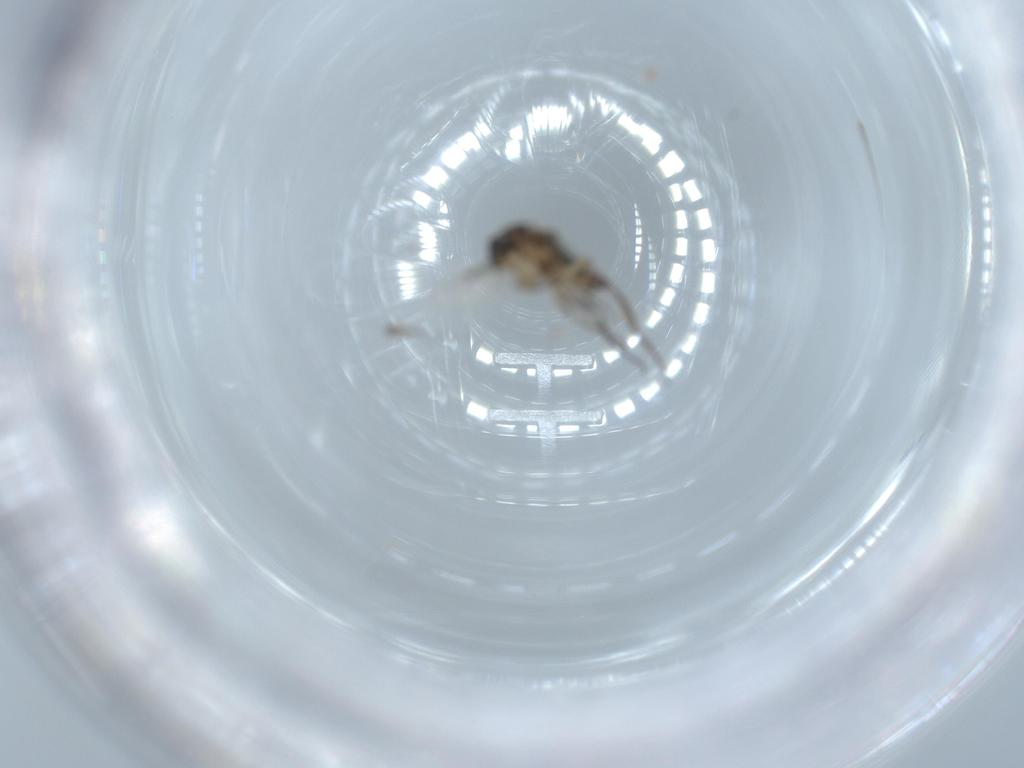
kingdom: Animalia
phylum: Arthropoda
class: Insecta
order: Diptera
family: Phoridae
